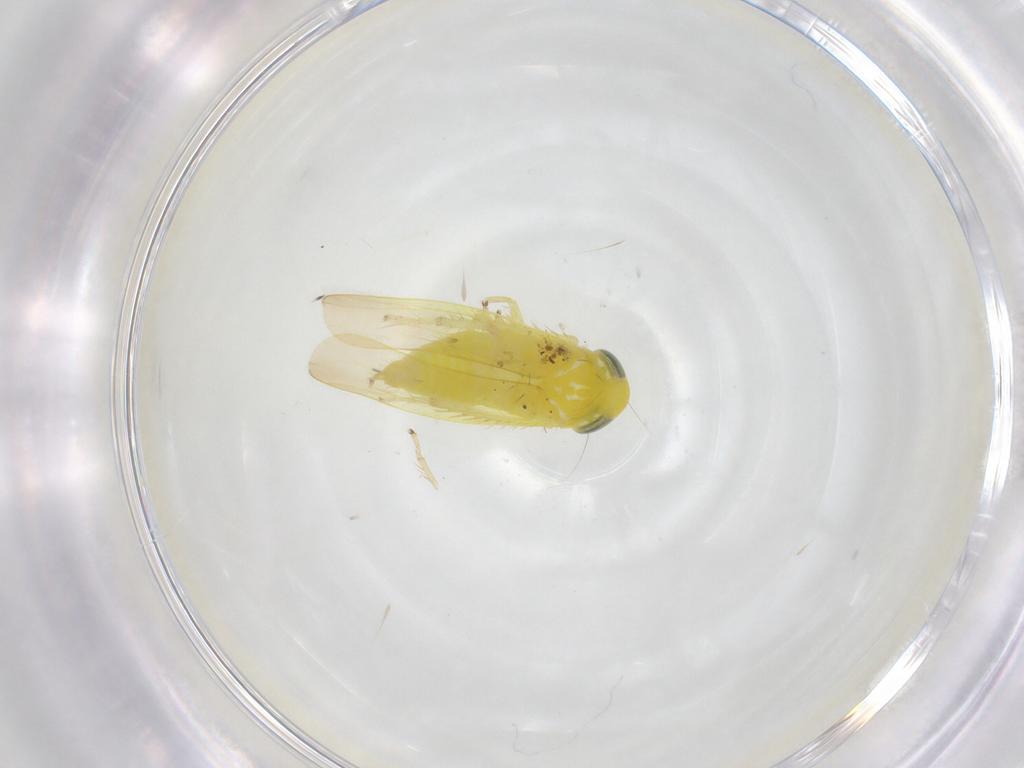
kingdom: Animalia
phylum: Arthropoda
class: Insecta
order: Hemiptera
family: Cicadellidae
